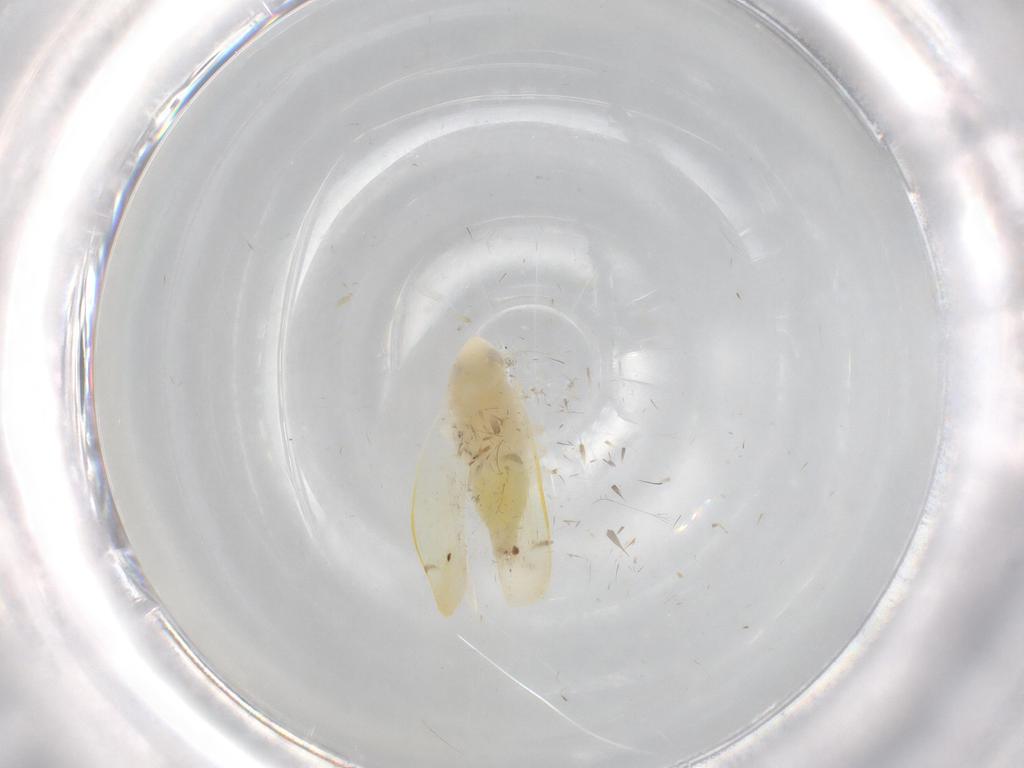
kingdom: Animalia
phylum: Arthropoda
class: Insecta
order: Hemiptera
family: Cicadellidae
